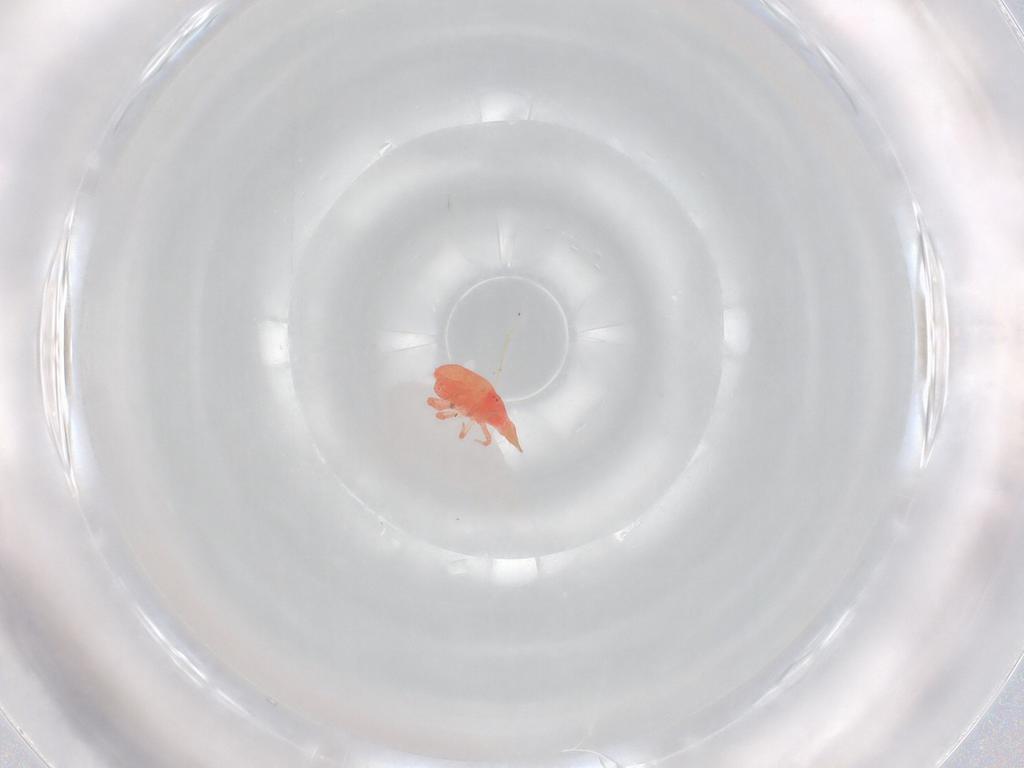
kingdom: Animalia
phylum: Arthropoda
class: Arachnida
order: Trombidiformes
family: Bdellidae
